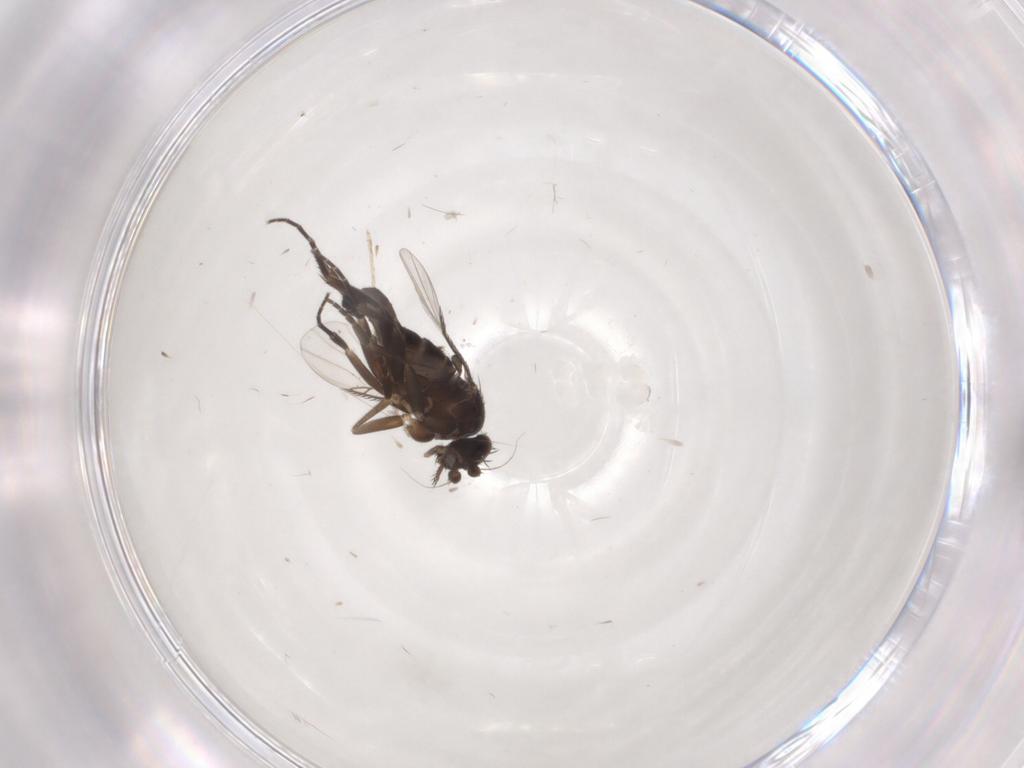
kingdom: Animalia
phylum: Arthropoda
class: Insecta
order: Diptera
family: Phoridae
